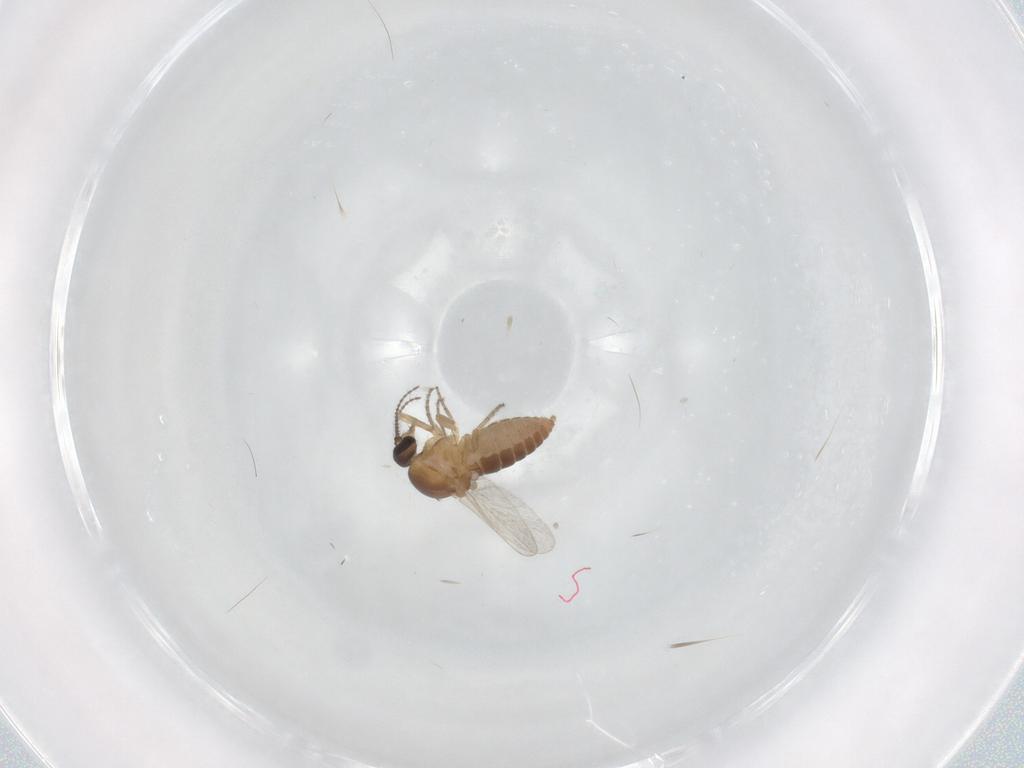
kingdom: Animalia
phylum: Arthropoda
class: Insecta
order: Diptera
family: Ceratopogonidae
